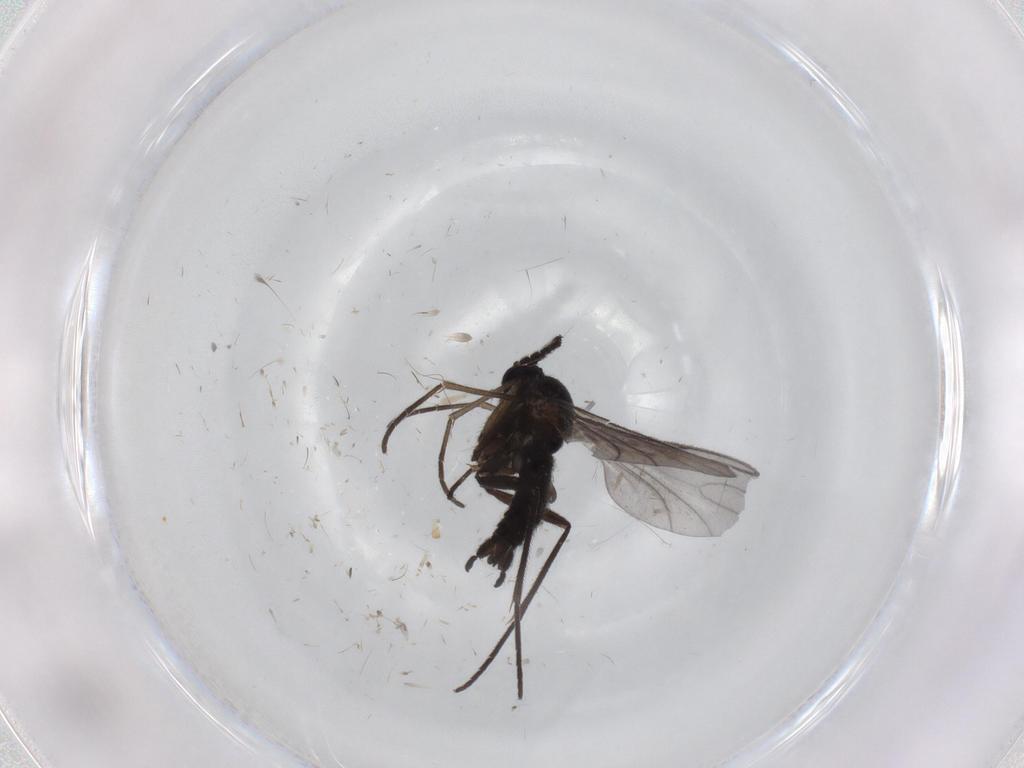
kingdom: Animalia
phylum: Arthropoda
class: Insecta
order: Diptera
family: Sciaridae
